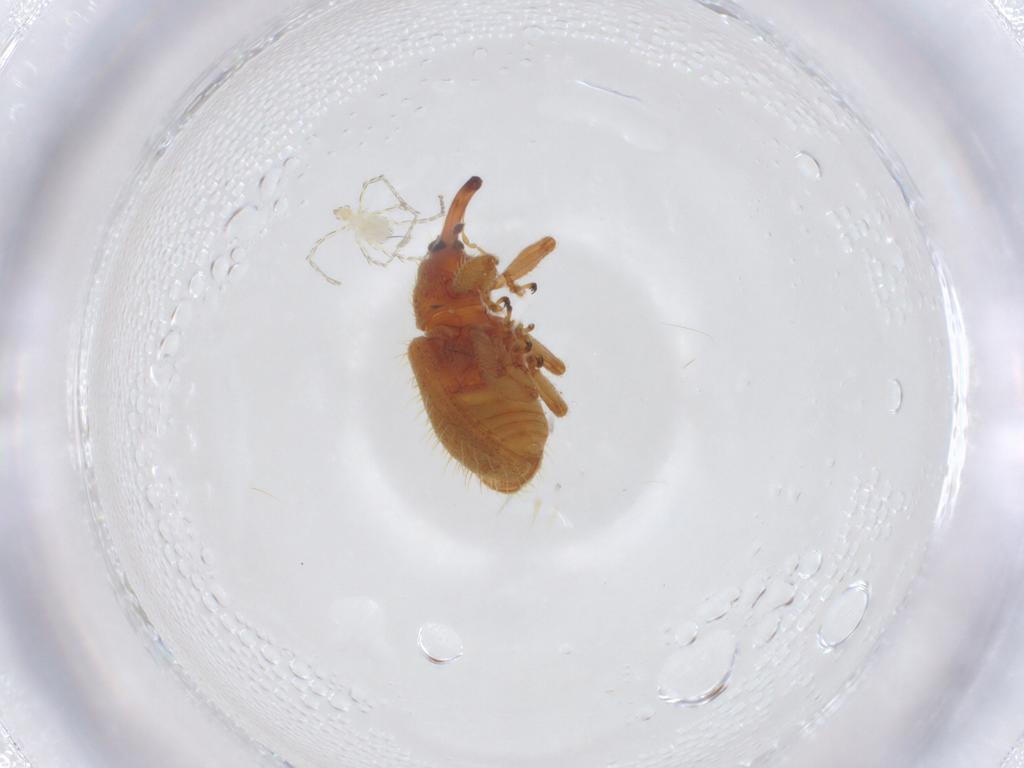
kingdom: Animalia
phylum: Arthropoda
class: Insecta
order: Coleoptera
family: Curculionidae
